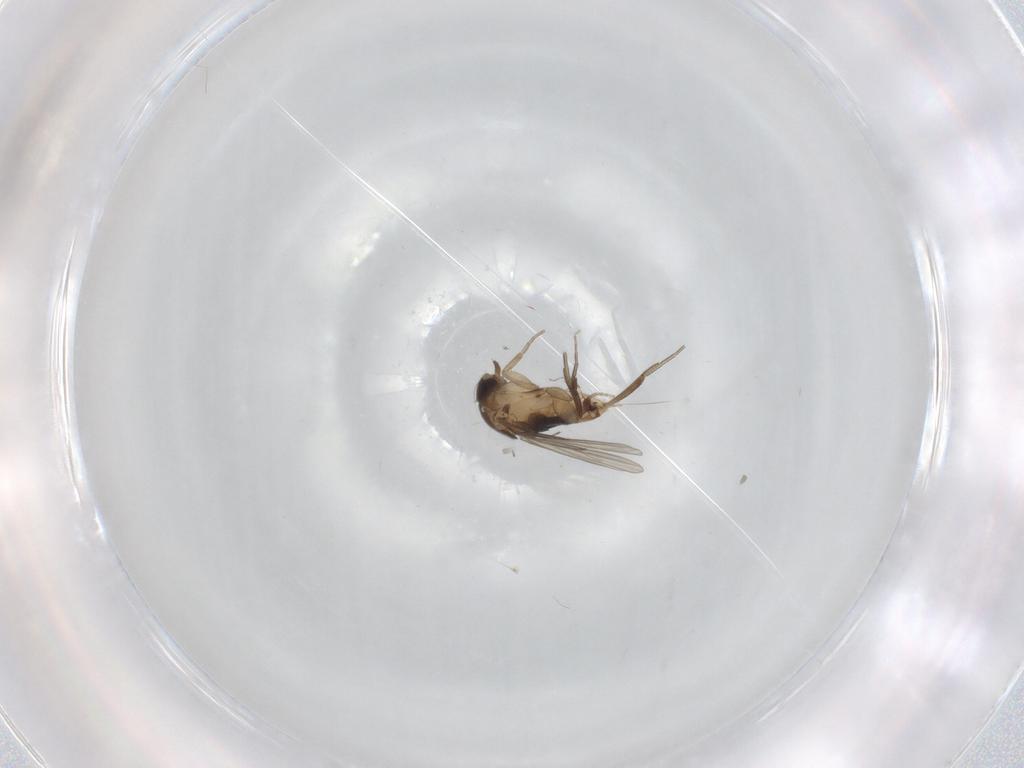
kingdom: Animalia
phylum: Arthropoda
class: Insecta
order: Diptera
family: Phoridae
